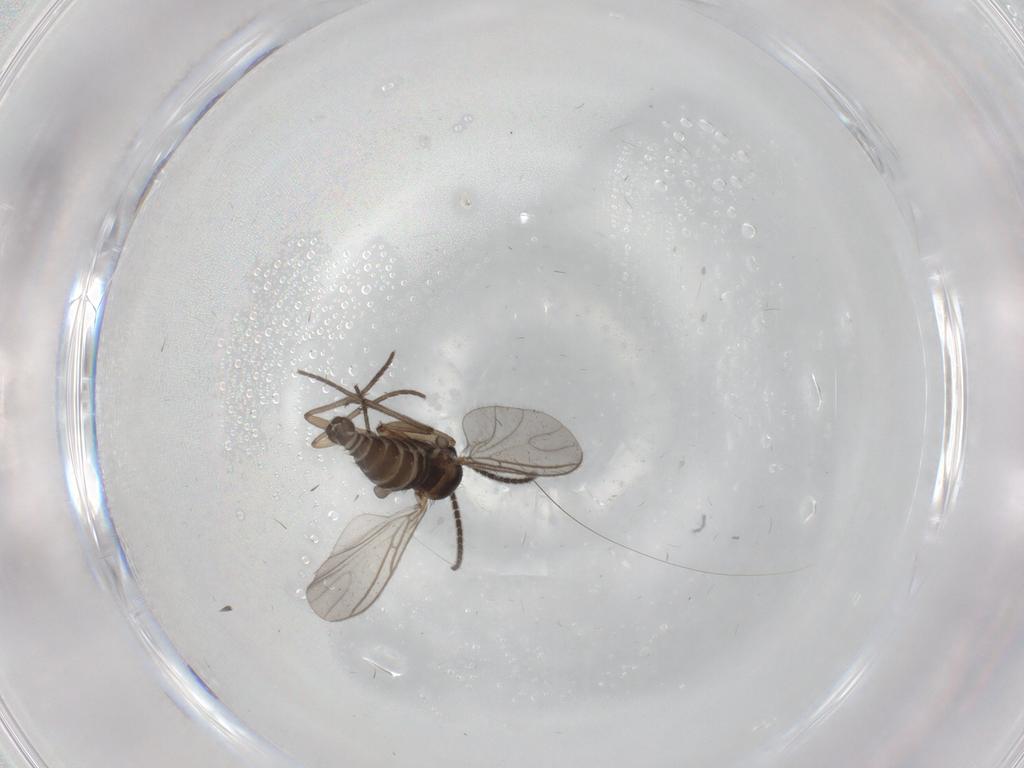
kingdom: Animalia
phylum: Arthropoda
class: Insecta
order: Diptera
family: Sciaridae
